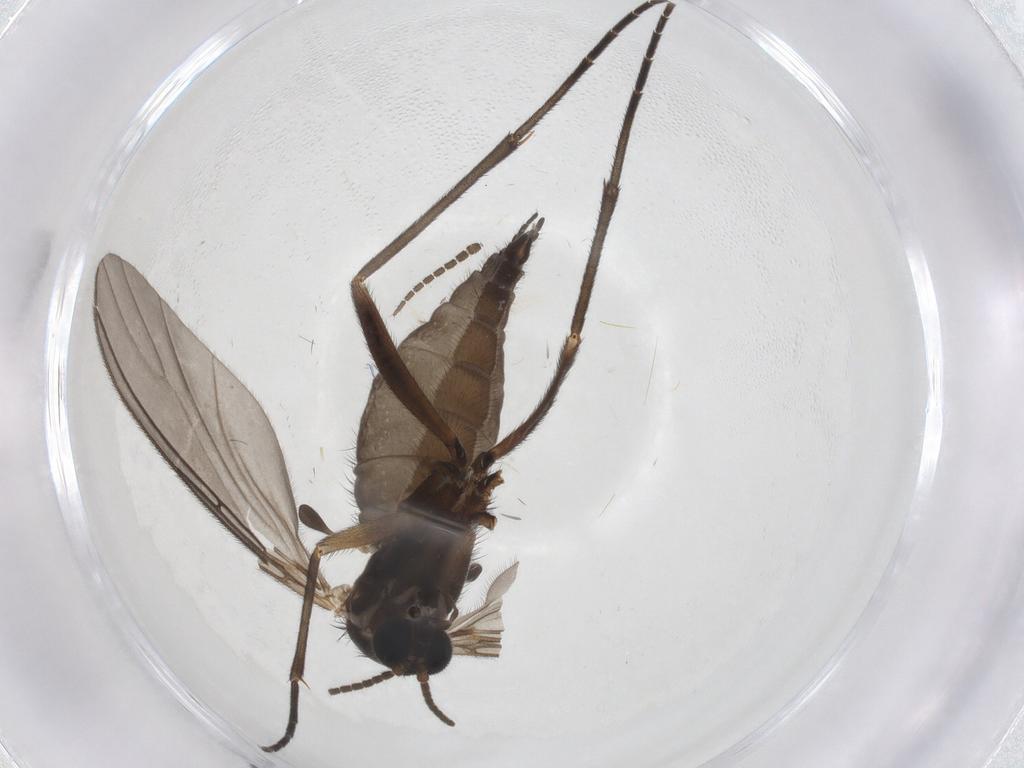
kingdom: Animalia
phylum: Arthropoda
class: Insecta
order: Diptera
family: Sciaridae
